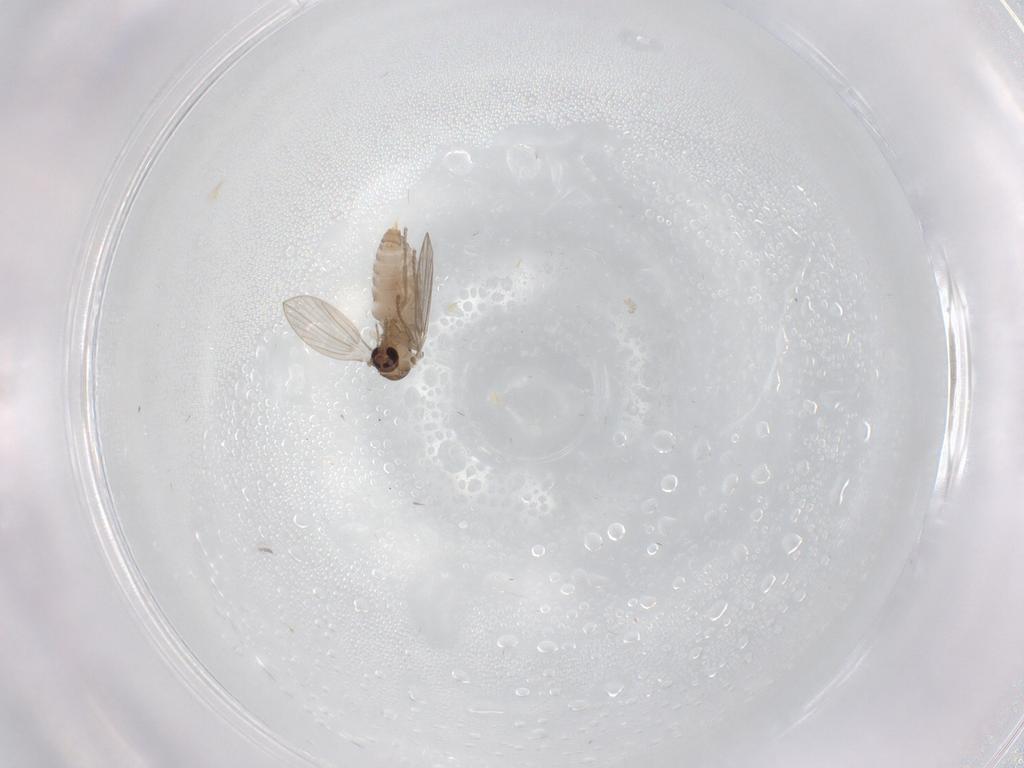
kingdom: Animalia
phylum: Arthropoda
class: Insecta
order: Diptera
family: Psychodidae
